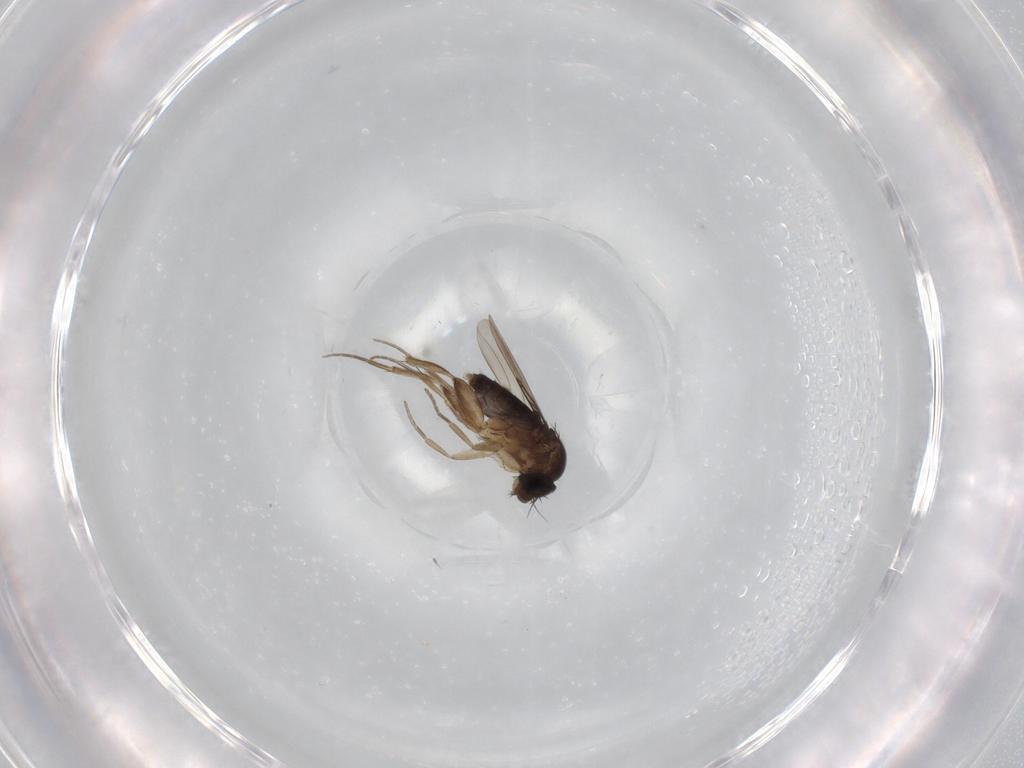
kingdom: Animalia
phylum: Arthropoda
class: Insecta
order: Diptera
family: Phoridae
